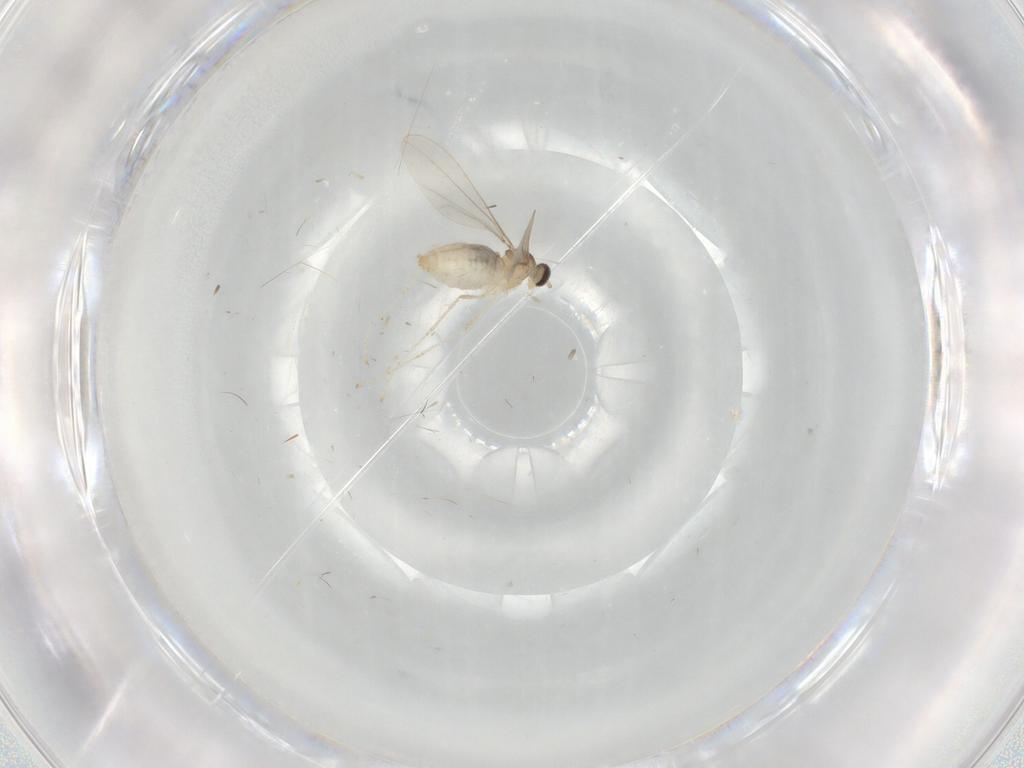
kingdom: Animalia
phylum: Arthropoda
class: Insecta
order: Diptera
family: Cecidomyiidae
